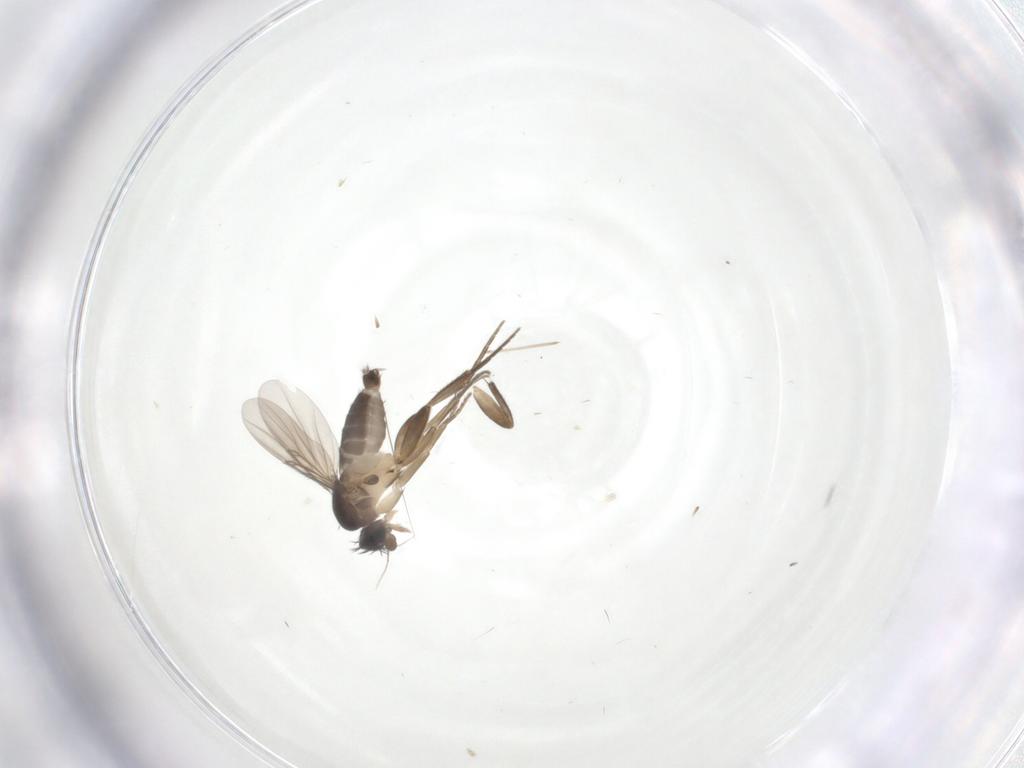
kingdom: Animalia
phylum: Arthropoda
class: Insecta
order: Diptera
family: Phoridae
